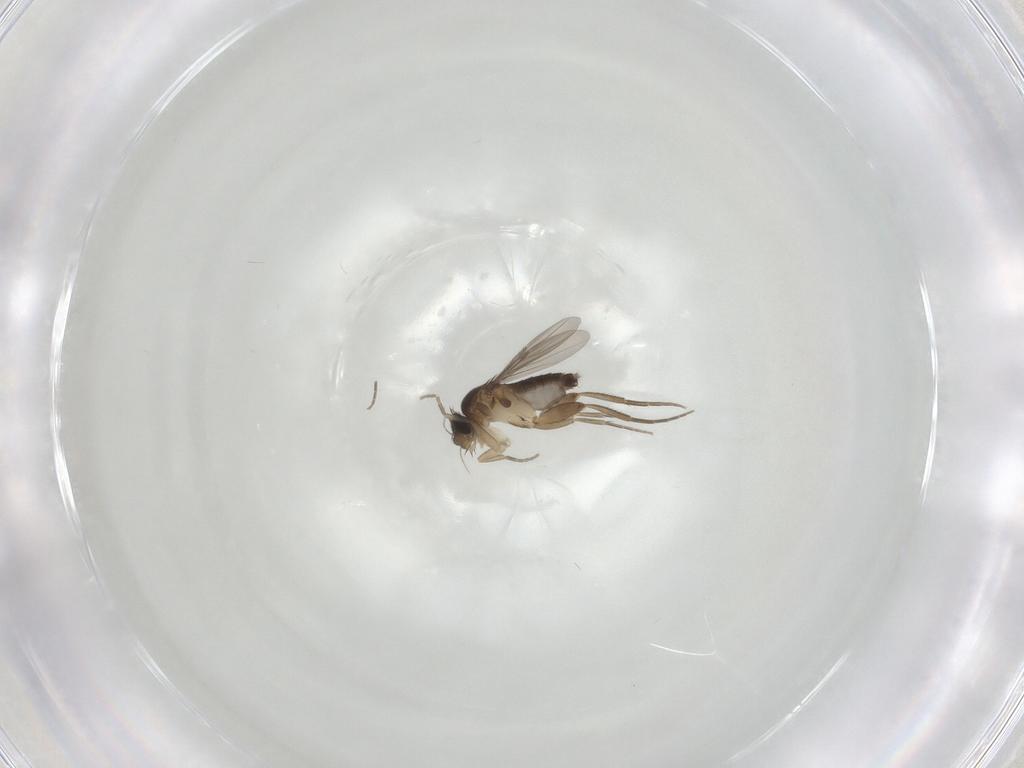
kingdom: Animalia
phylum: Arthropoda
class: Insecta
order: Diptera
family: Phoridae
